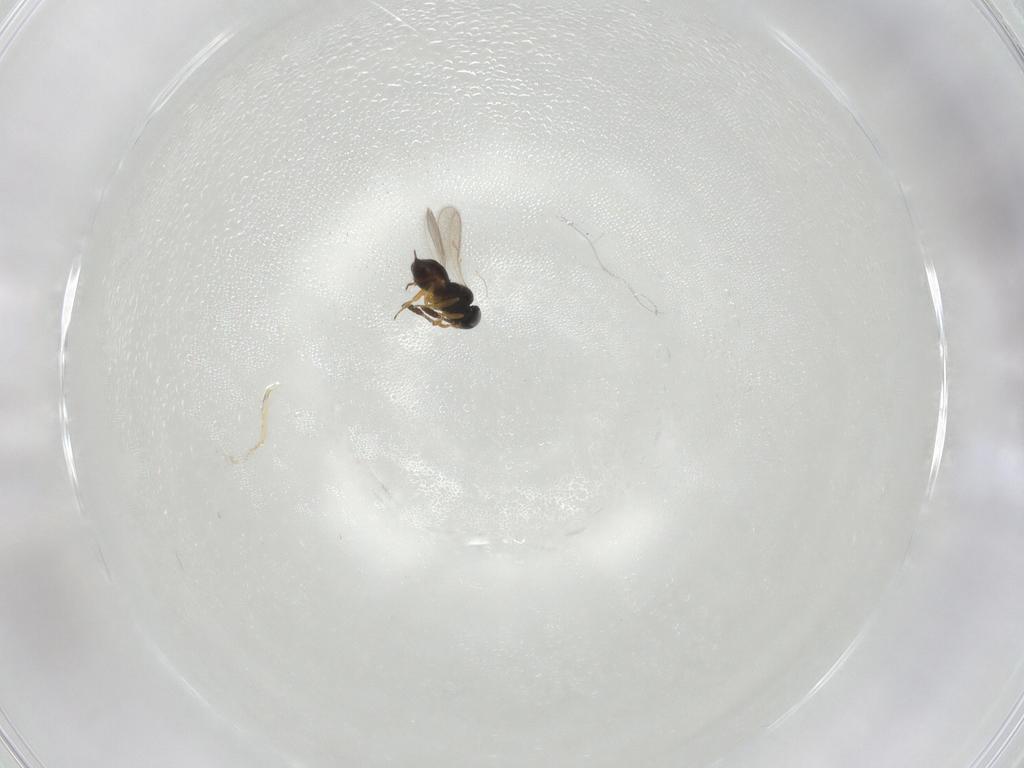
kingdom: Animalia
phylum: Arthropoda
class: Insecta
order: Hymenoptera
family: Scelionidae
